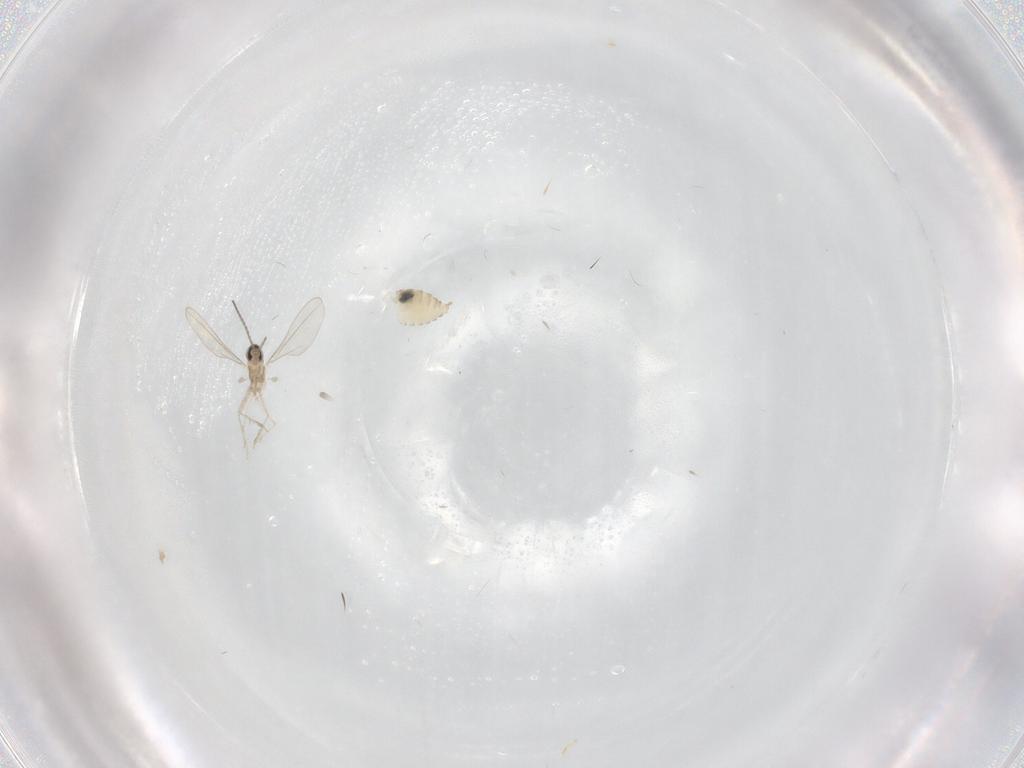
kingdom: Animalia
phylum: Arthropoda
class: Insecta
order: Diptera
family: Cecidomyiidae
